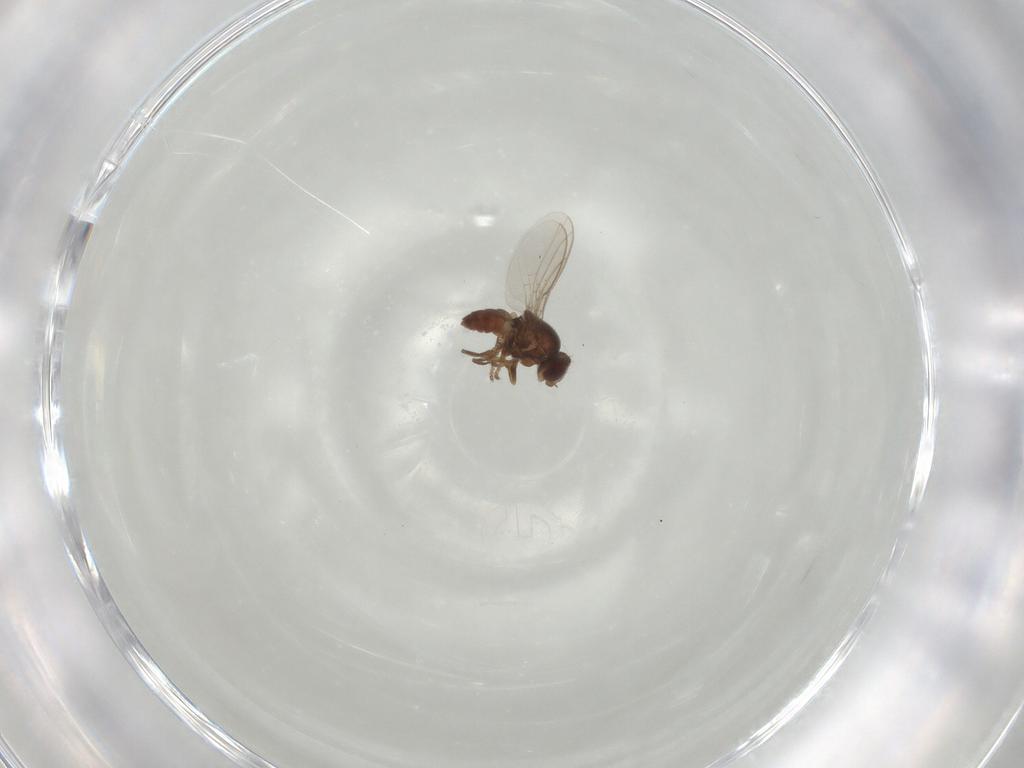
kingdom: Animalia
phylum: Arthropoda
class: Insecta
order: Diptera
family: Chloropidae
